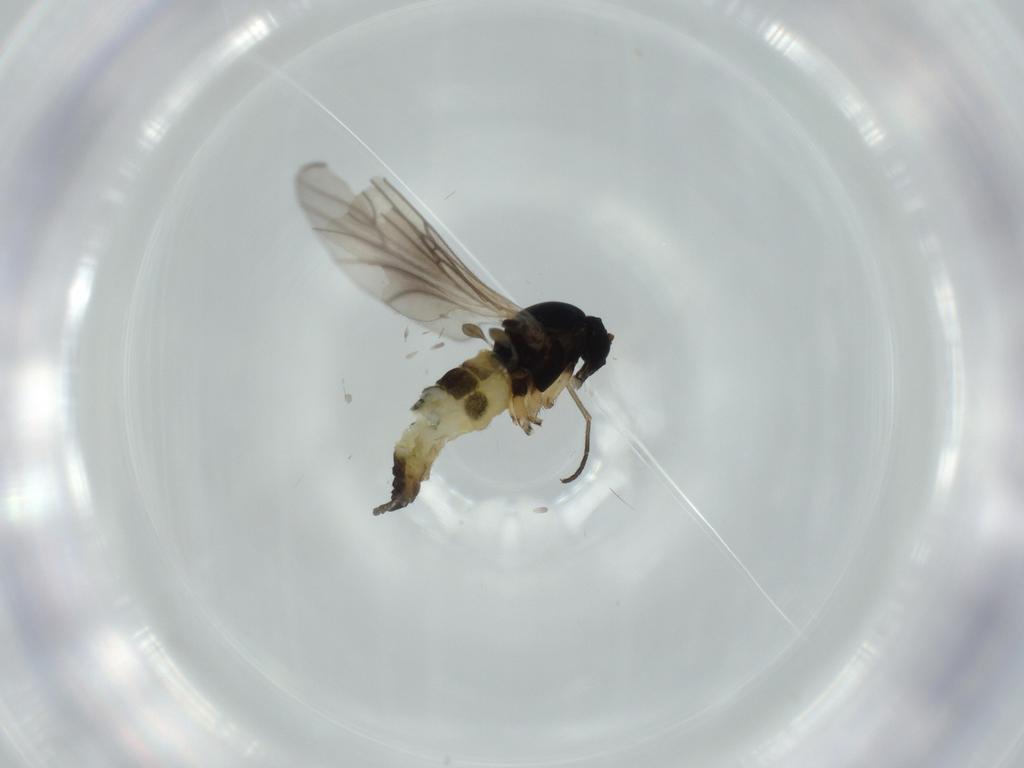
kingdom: Animalia
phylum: Arthropoda
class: Insecta
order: Diptera
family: Sciaridae
